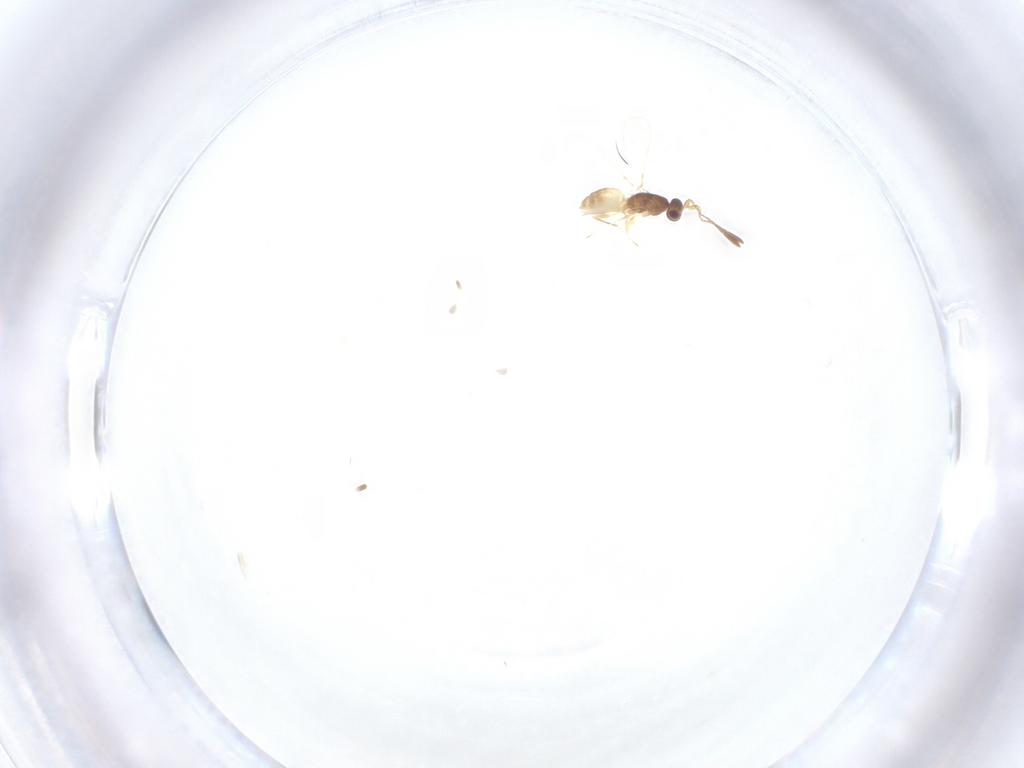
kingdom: Animalia
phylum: Arthropoda
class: Insecta
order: Hymenoptera
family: Mymaridae
